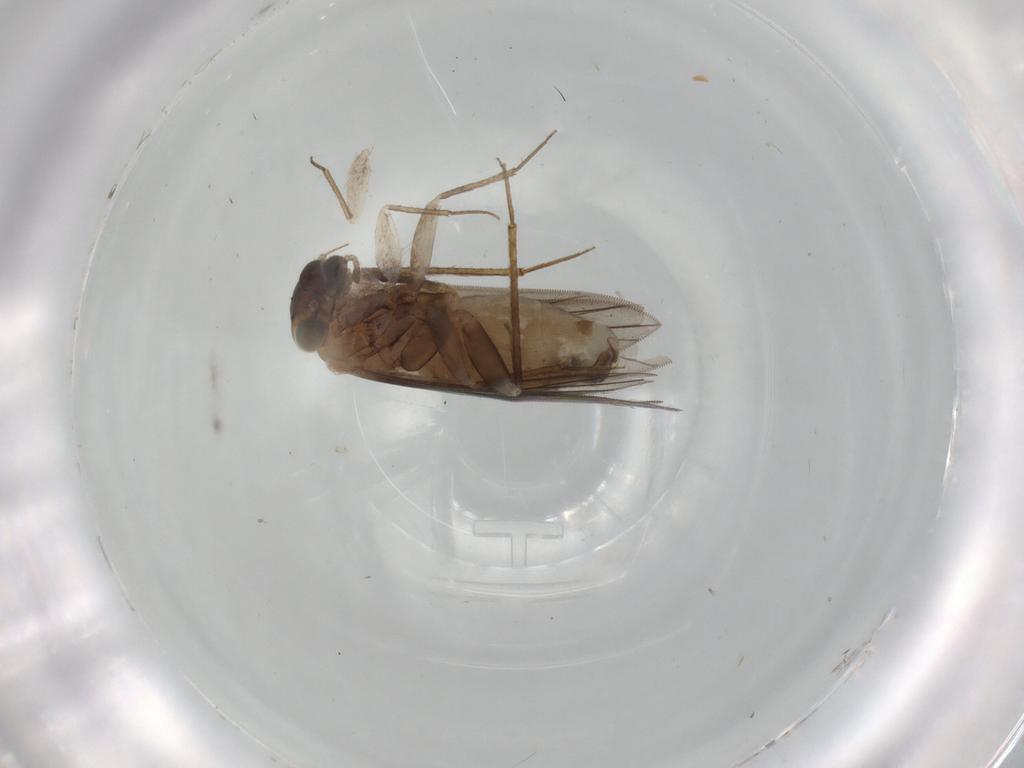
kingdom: Animalia
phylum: Arthropoda
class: Insecta
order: Psocodea
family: Lepidopsocidae
